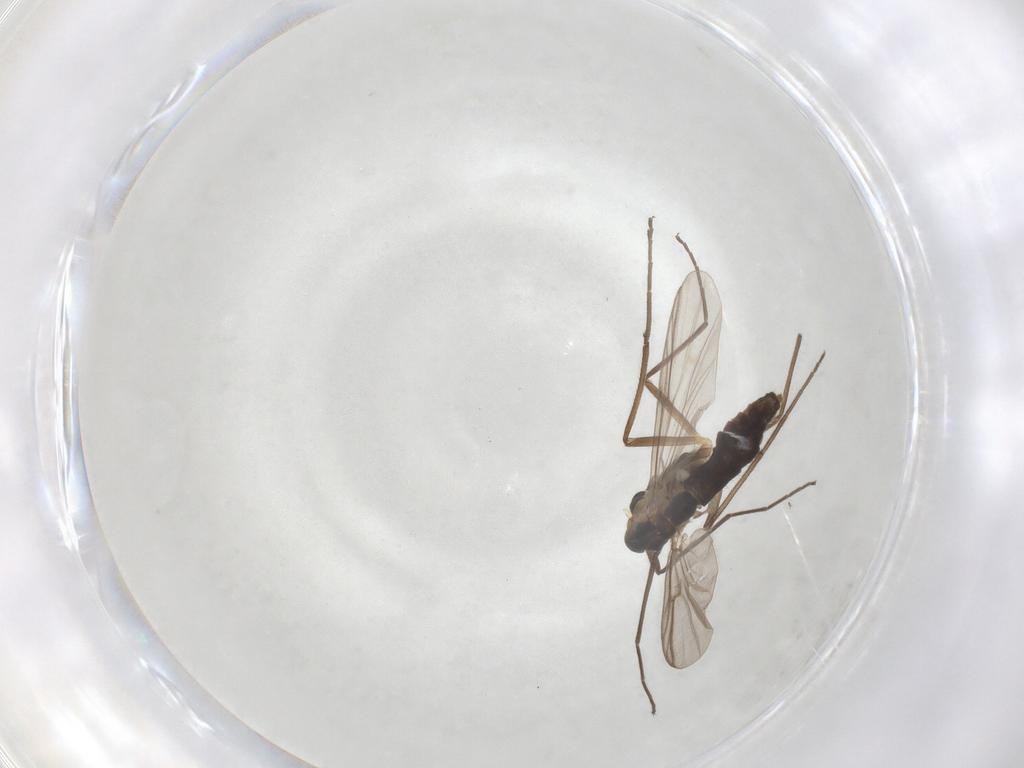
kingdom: Animalia
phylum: Arthropoda
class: Insecta
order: Diptera
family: Chironomidae
